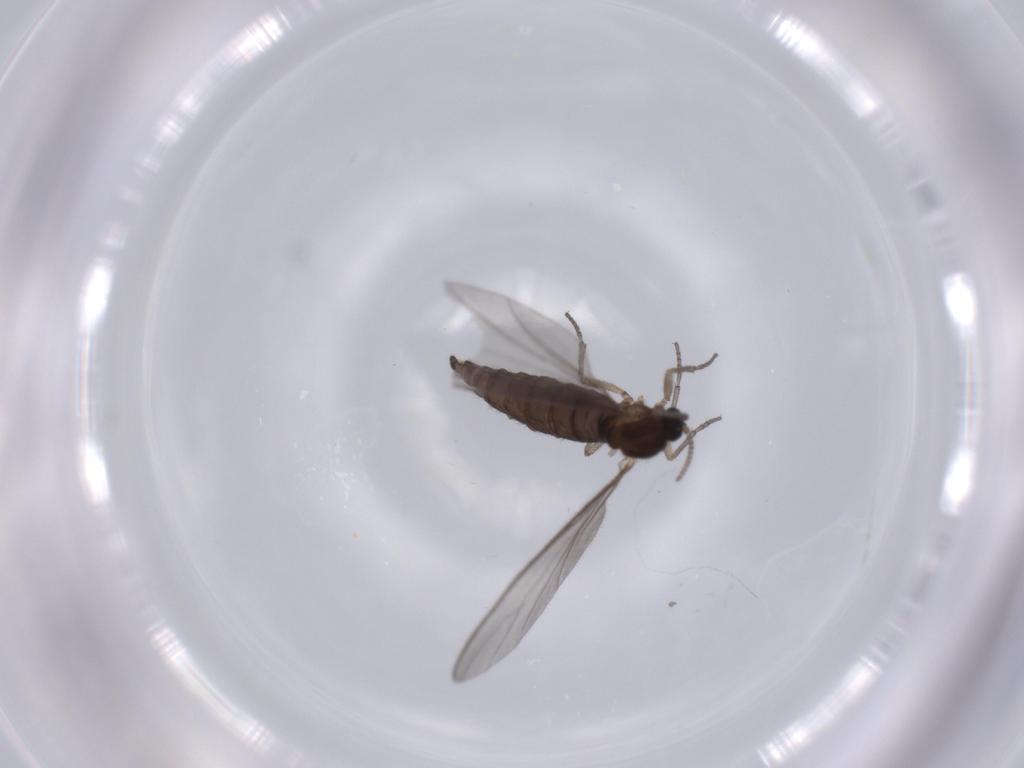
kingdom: Animalia
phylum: Arthropoda
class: Insecta
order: Diptera
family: Sciaridae
